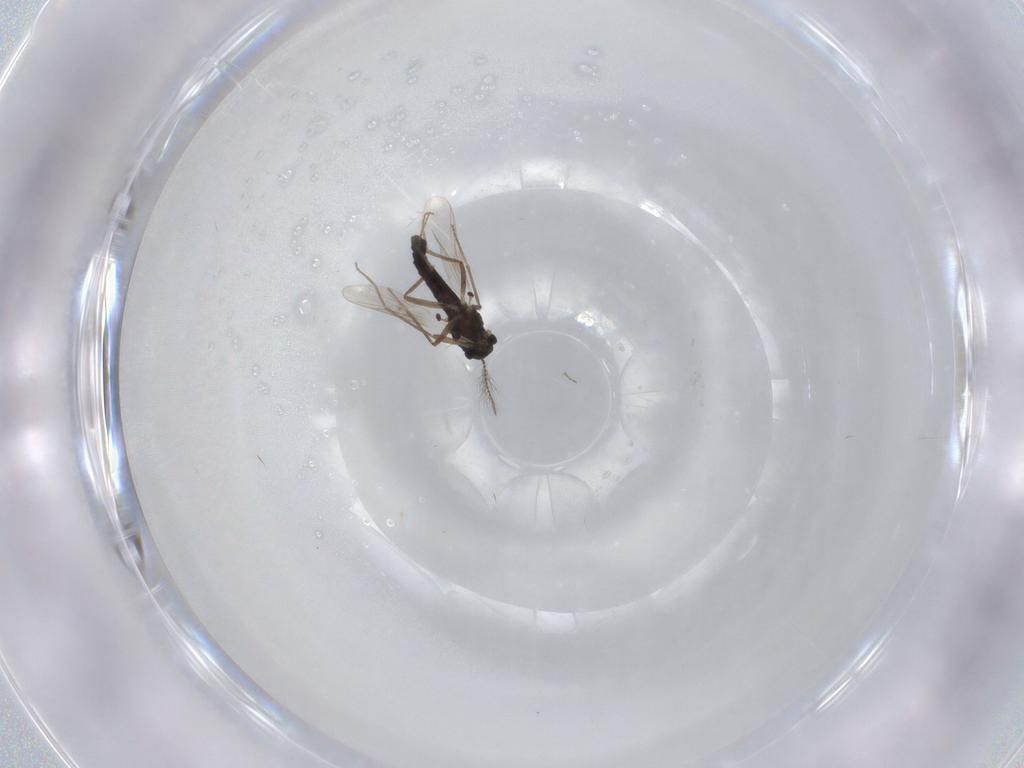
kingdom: Animalia
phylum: Arthropoda
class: Insecta
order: Diptera
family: Chironomidae
